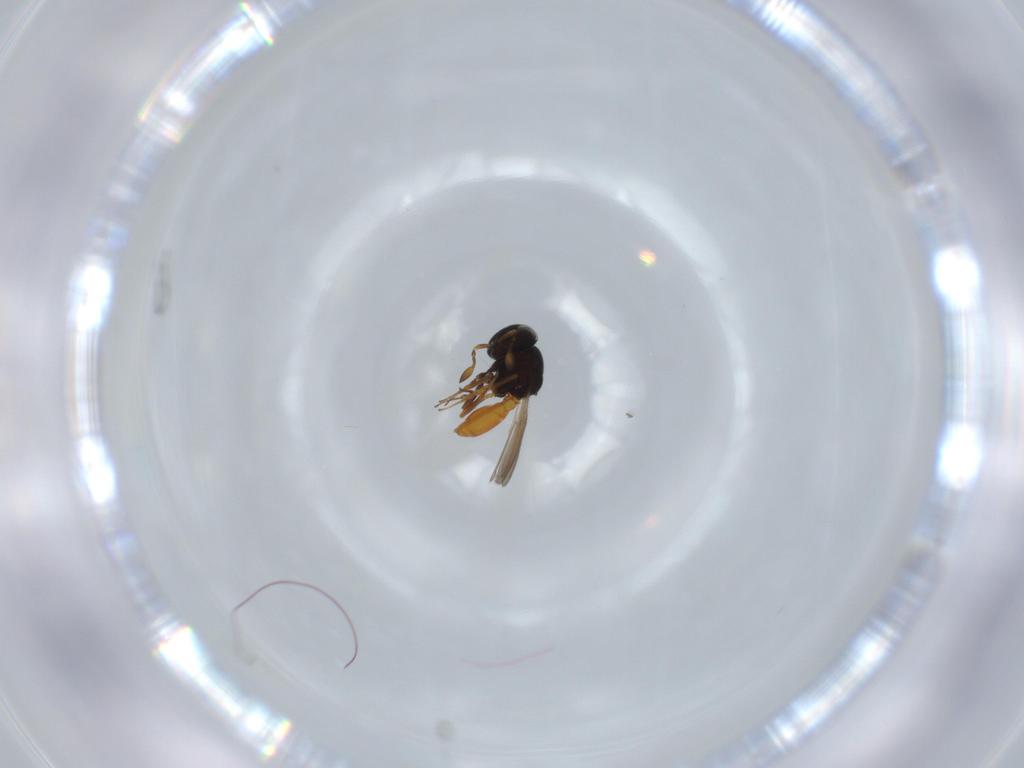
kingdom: Animalia
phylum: Arthropoda
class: Insecta
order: Hymenoptera
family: Scelionidae
